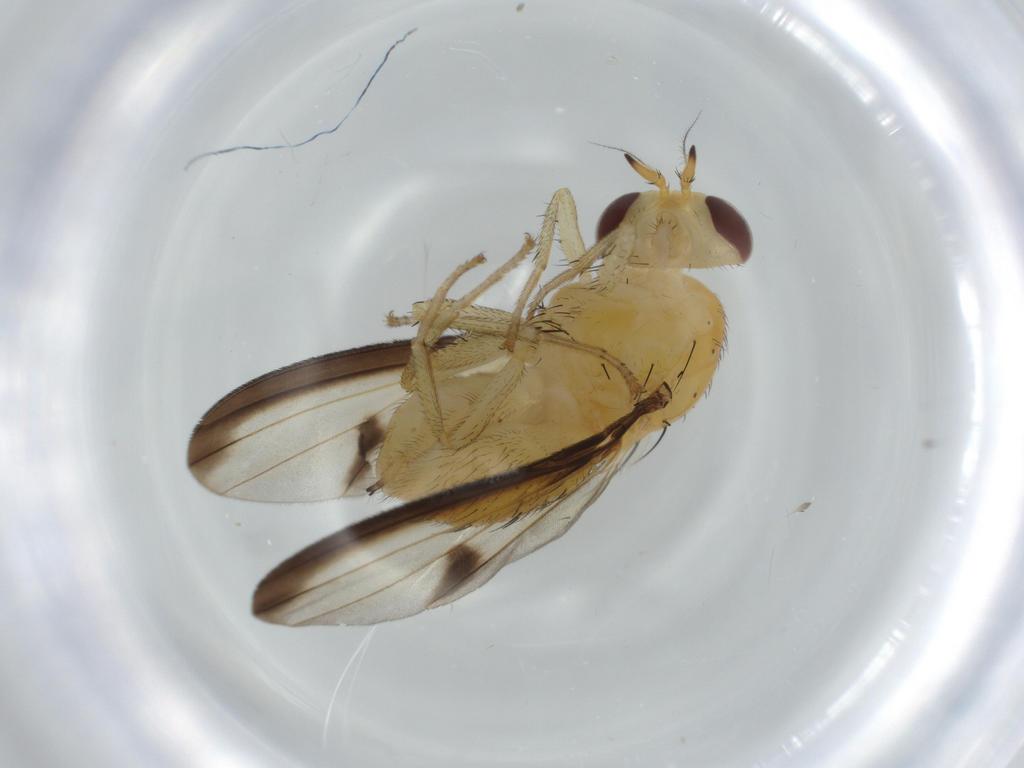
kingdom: Animalia
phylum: Arthropoda
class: Insecta
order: Diptera
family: Lauxaniidae
